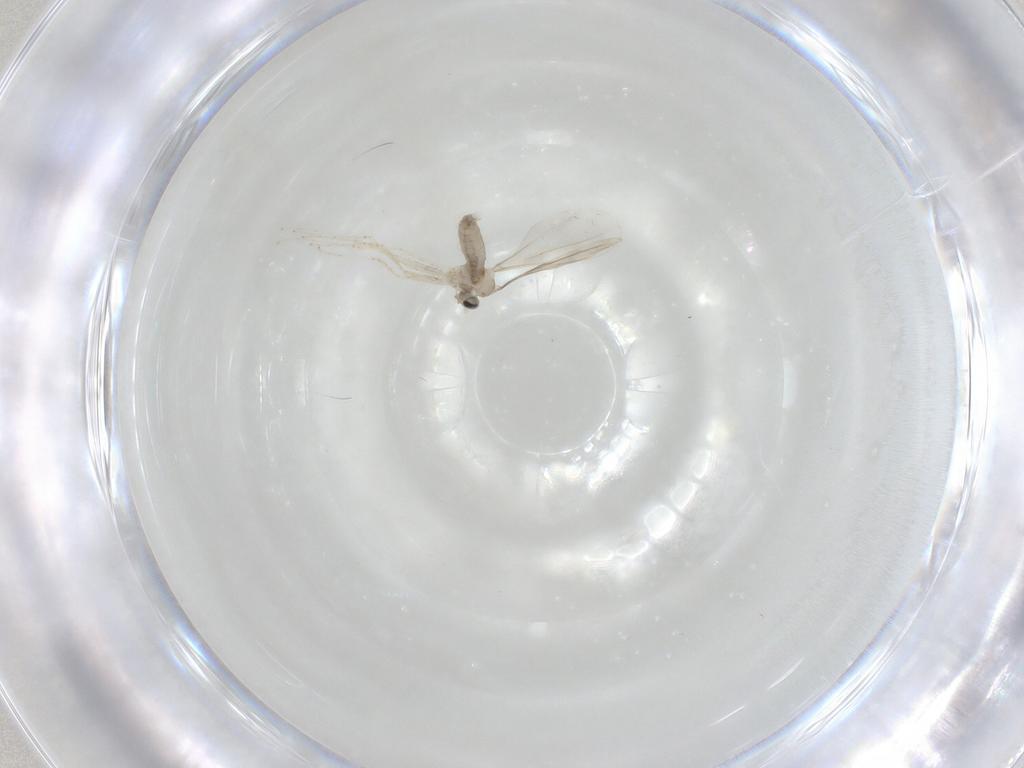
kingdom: Animalia
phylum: Arthropoda
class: Insecta
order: Diptera
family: Cecidomyiidae
